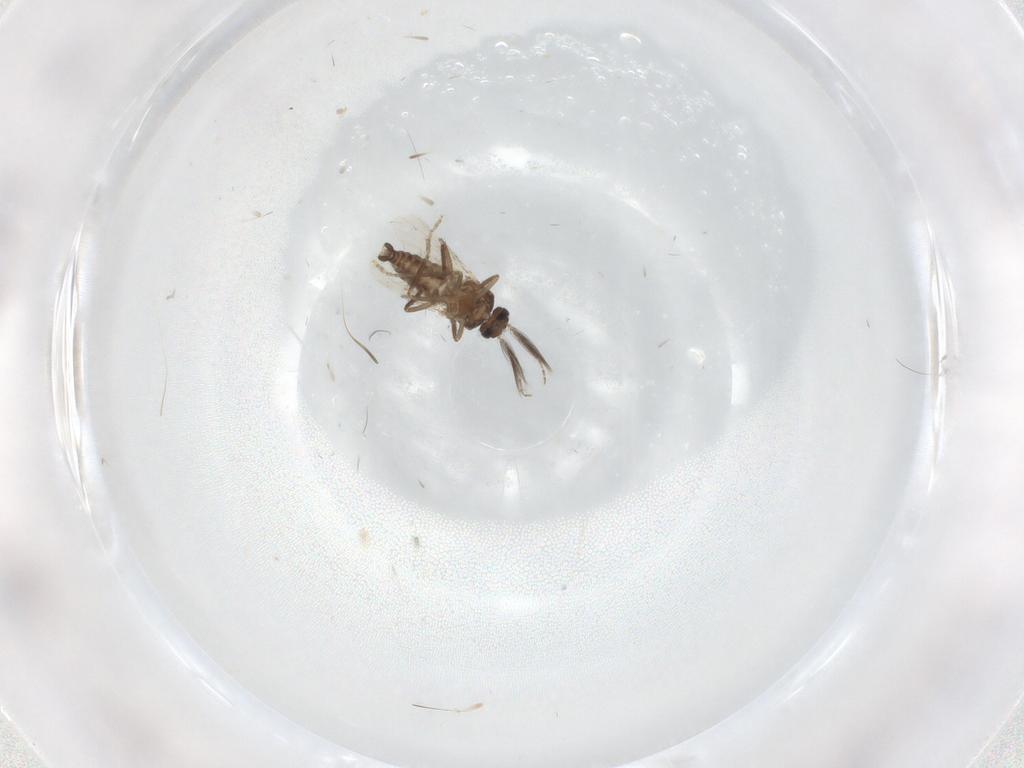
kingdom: Animalia
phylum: Arthropoda
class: Insecta
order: Diptera
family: Ceratopogonidae
